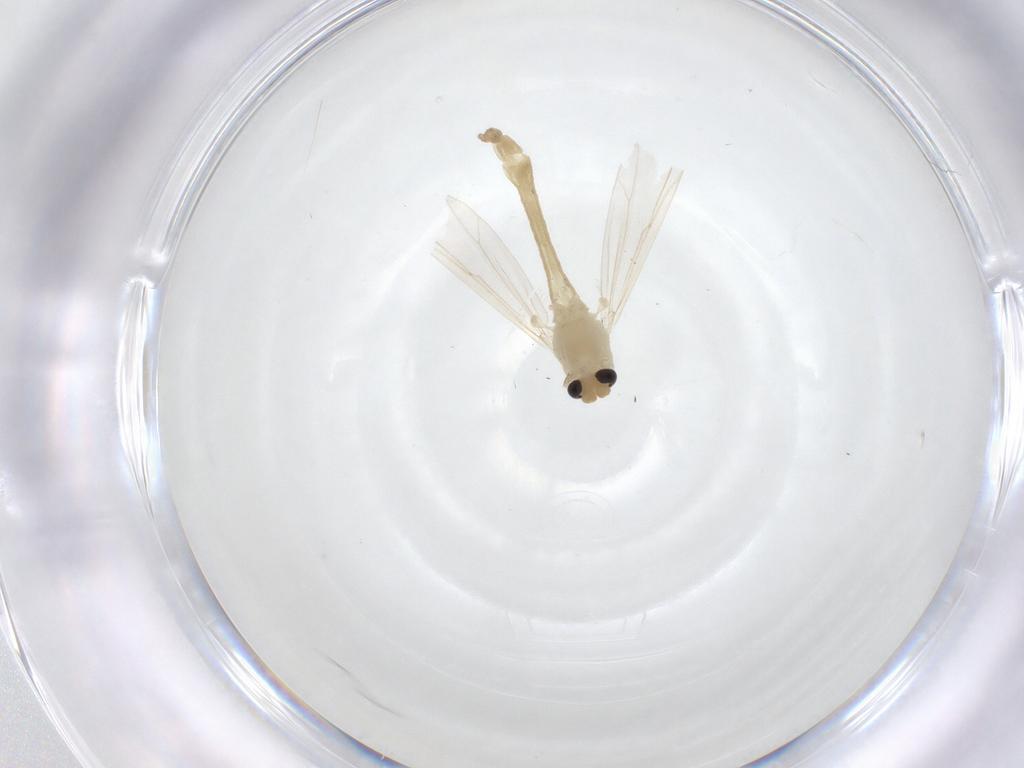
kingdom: Animalia
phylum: Arthropoda
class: Insecta
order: Diptera
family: Chironomidae
